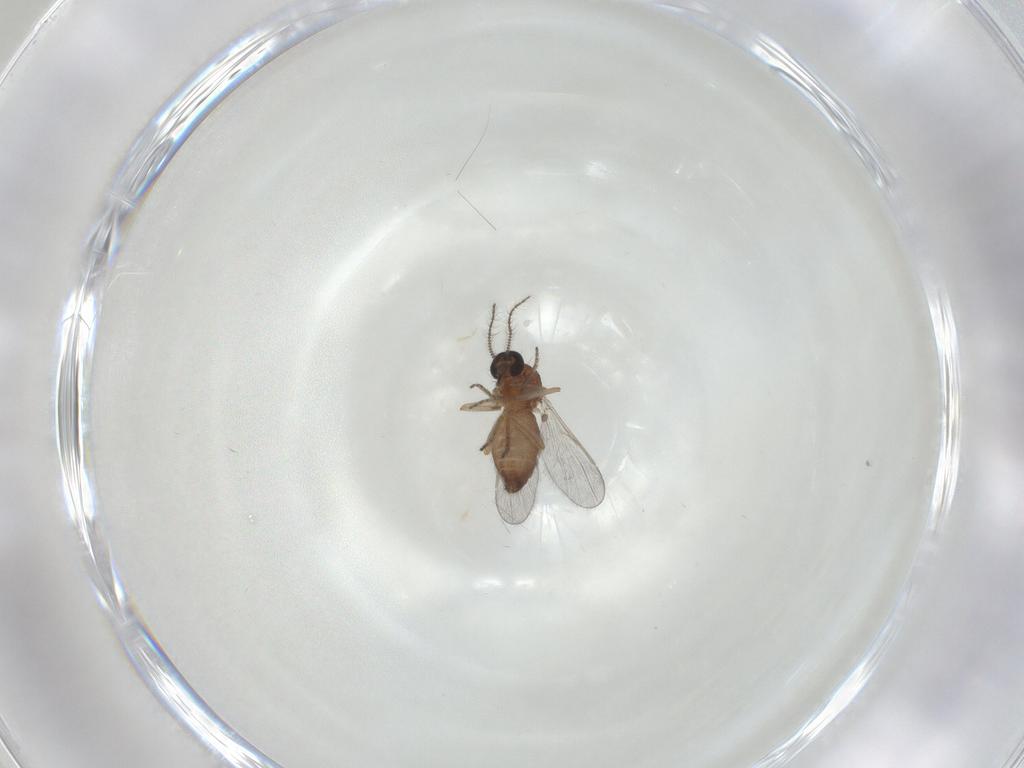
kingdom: Animalia
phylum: Arthropoda
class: Insecta
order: Diptera
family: Ceratopogonidae
